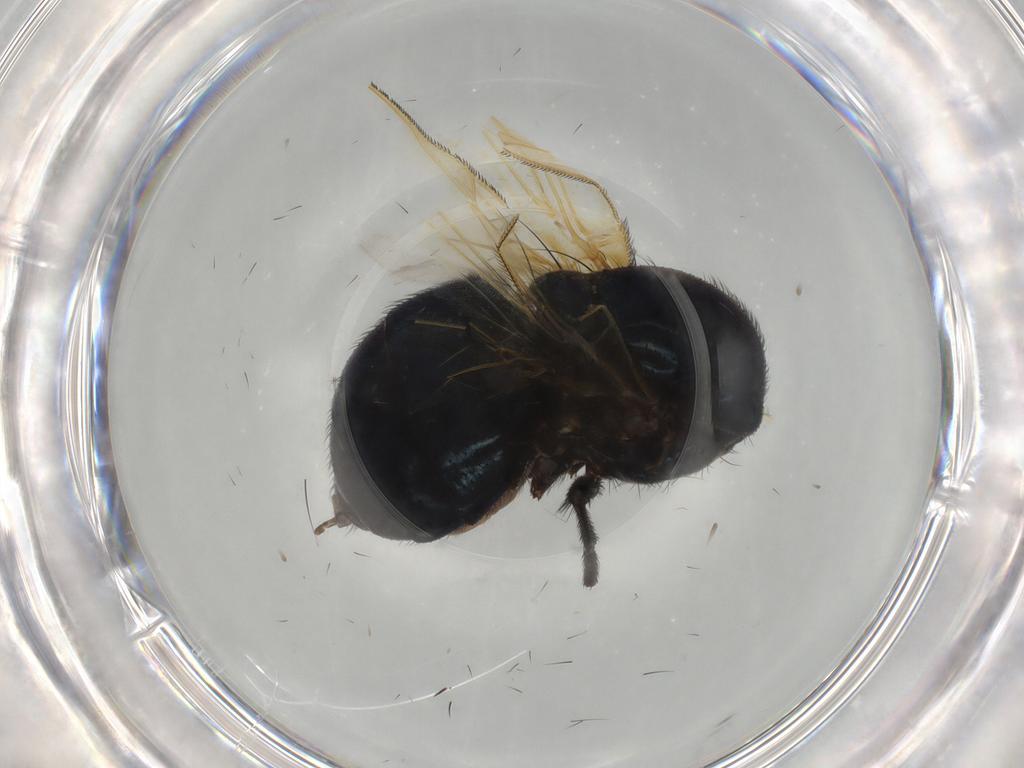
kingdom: Animalia
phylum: Arthropoda
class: Insecta
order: Diptera
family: Lonchaeidae
